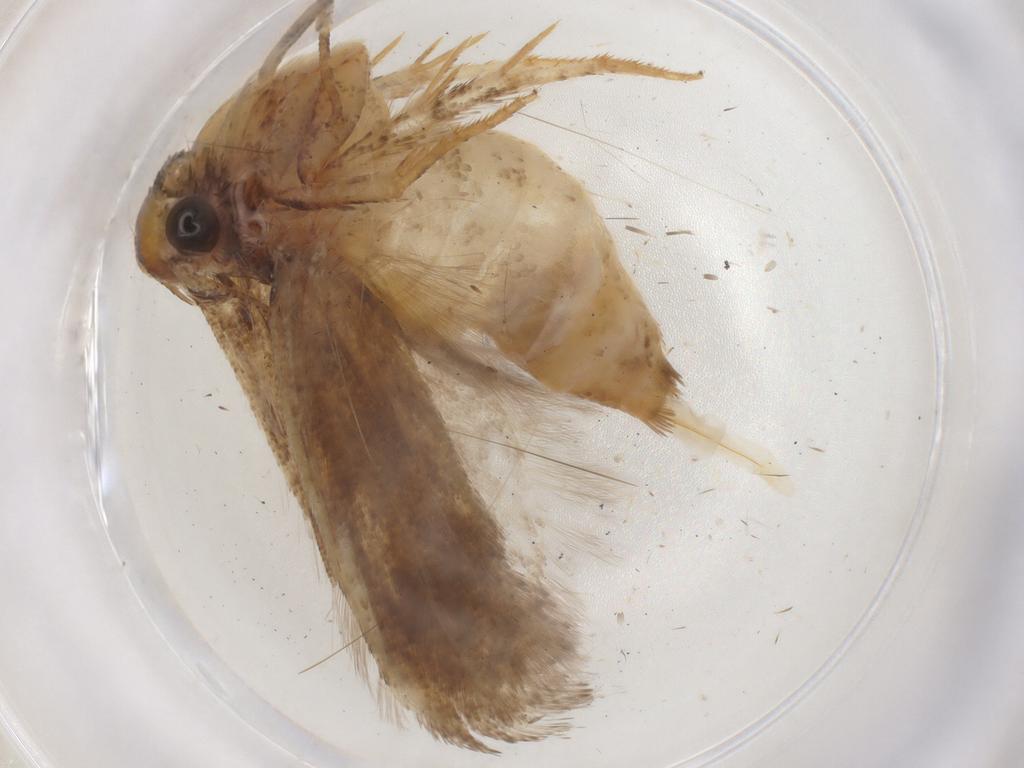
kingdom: Animalia
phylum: Arthropoda
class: Insecta
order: Lepidoptera
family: Gelechiidae
